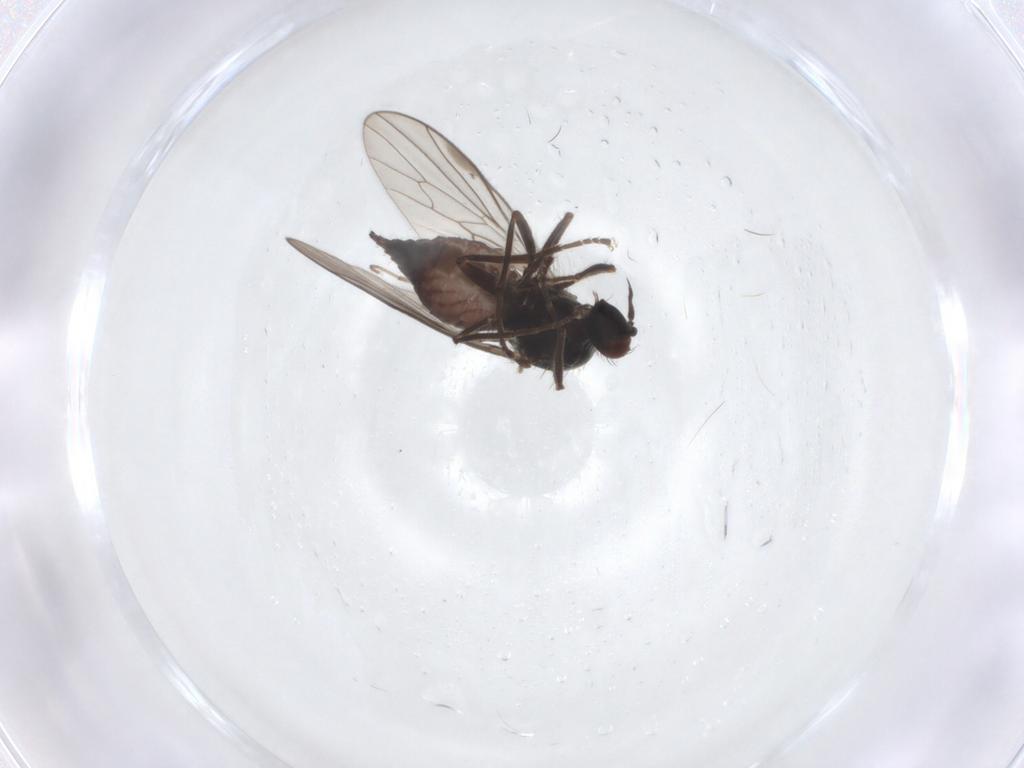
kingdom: Animalia
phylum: Arthropoda
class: Insecta
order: Diptera
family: Hybotidae
